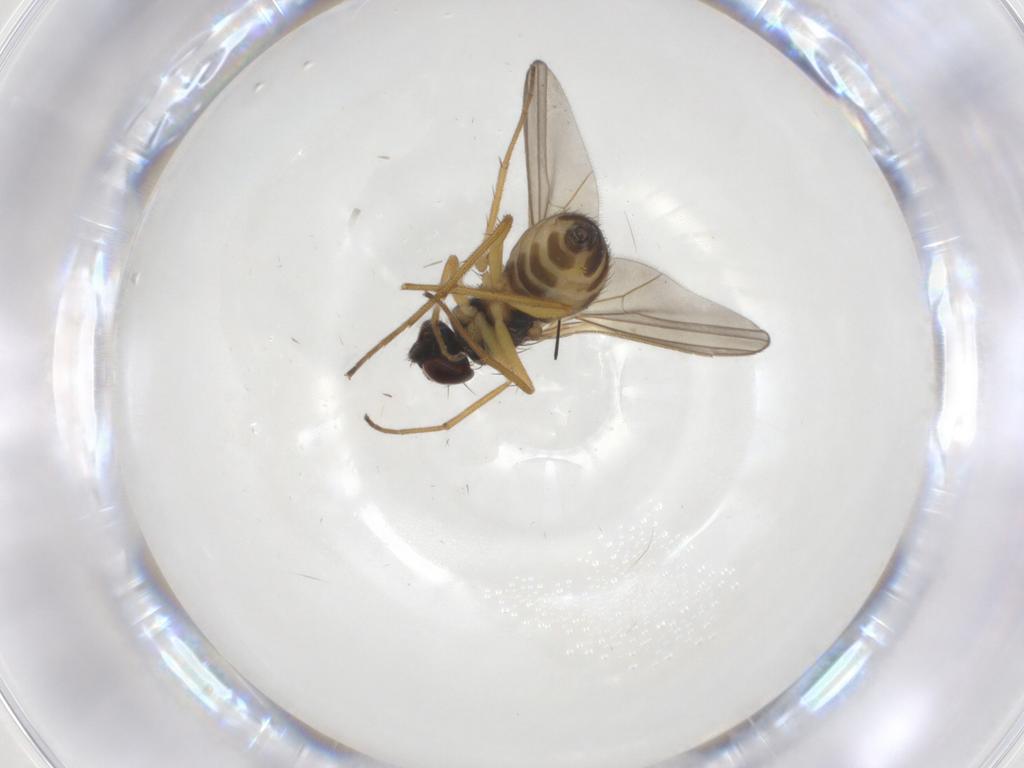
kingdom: Animalia
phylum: Arthropoda
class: Insecta
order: Diptera
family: Dolichopodidae
